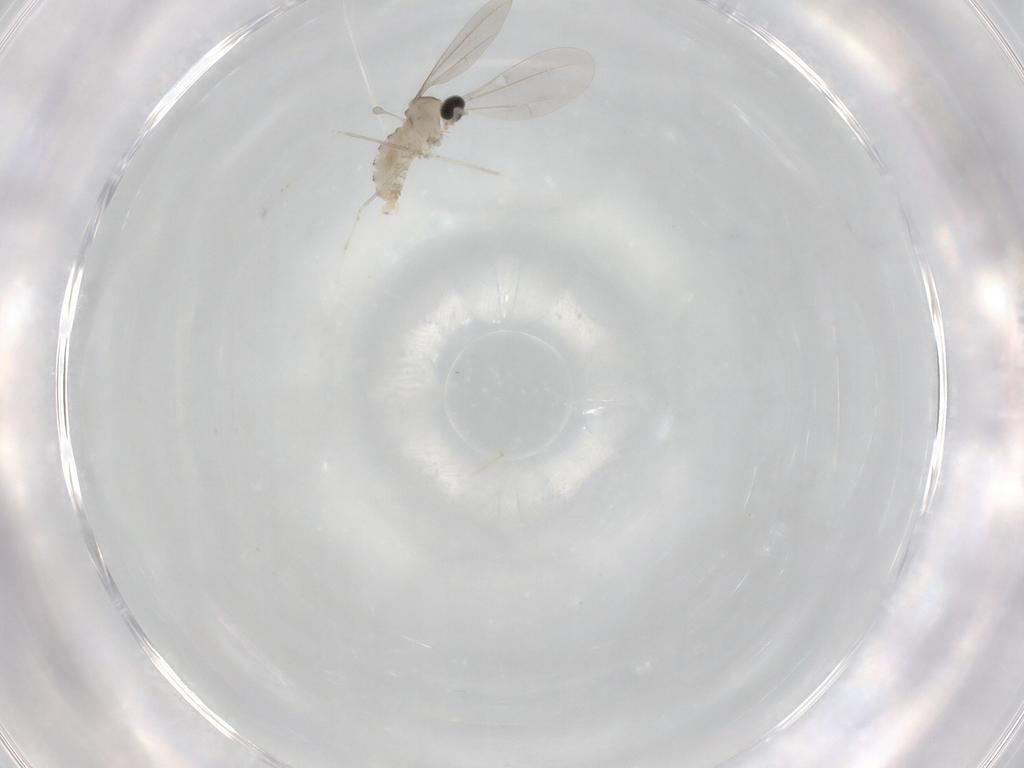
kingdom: Animalia
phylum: Arthropoda
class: Insecta
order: Diptera
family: Cecidomyiidae
